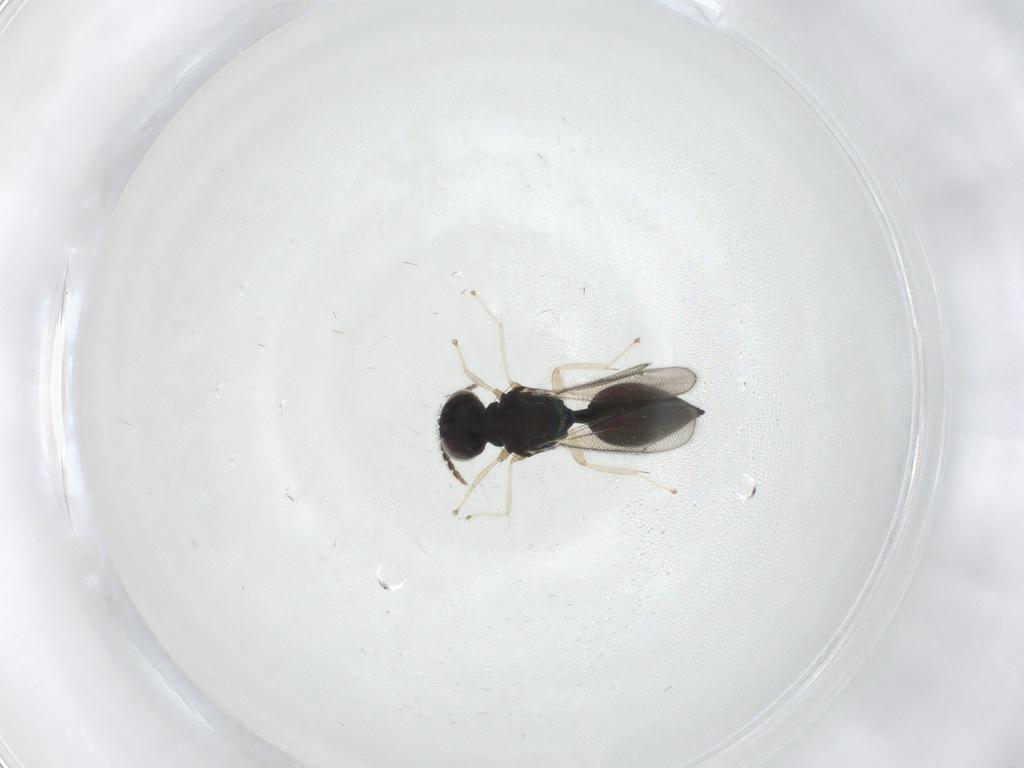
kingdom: Animalia
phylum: Arthropoda
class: Insecta
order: Hymenoptera
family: Eulophidae
